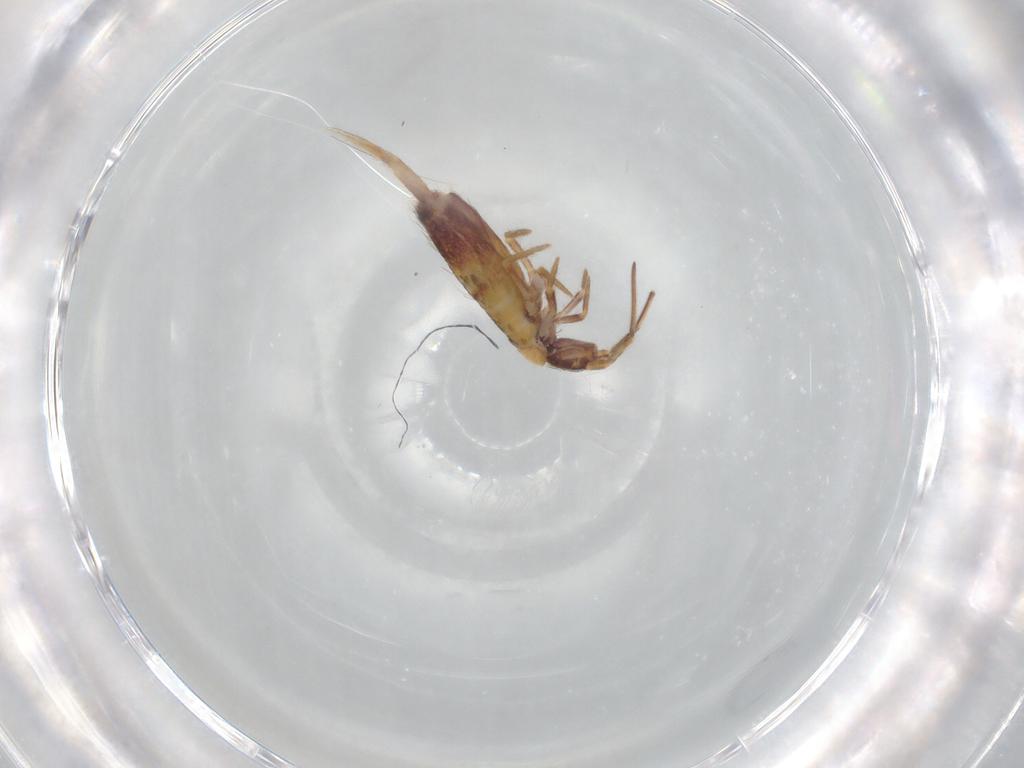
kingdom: Animalia
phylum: Arthropoda
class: Collembola
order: Entomobryomorpha
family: Entomobryidae
